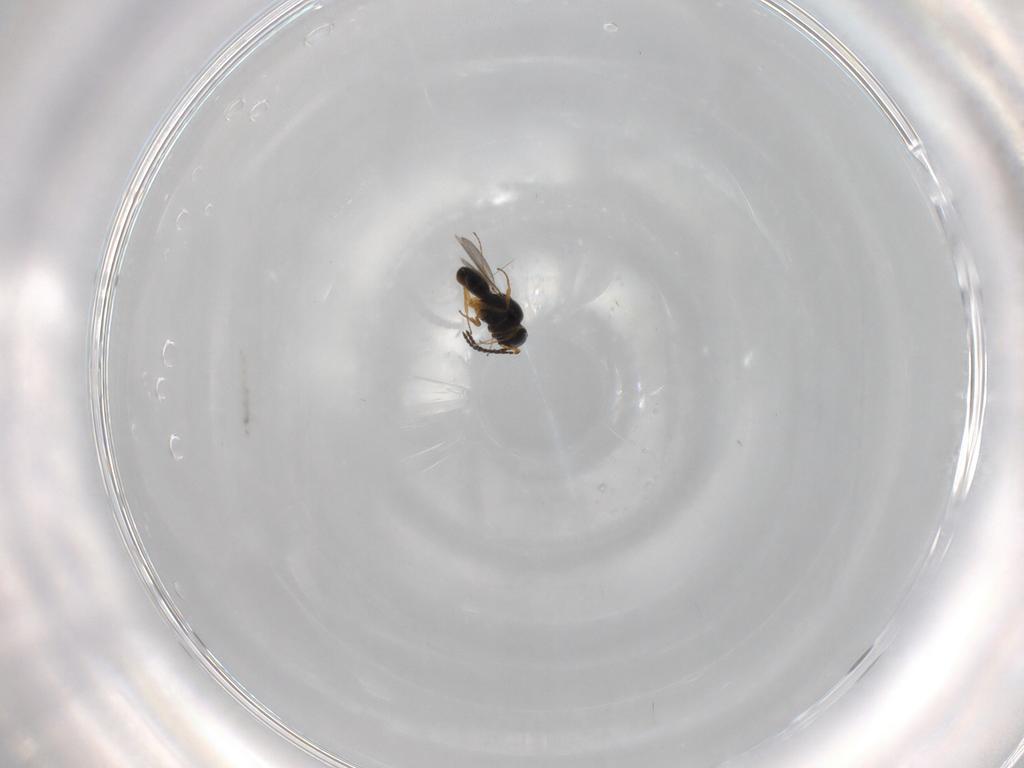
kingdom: Animalia
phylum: Arthropoda
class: Insecta
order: Hymenoptera
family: Scelionidae
